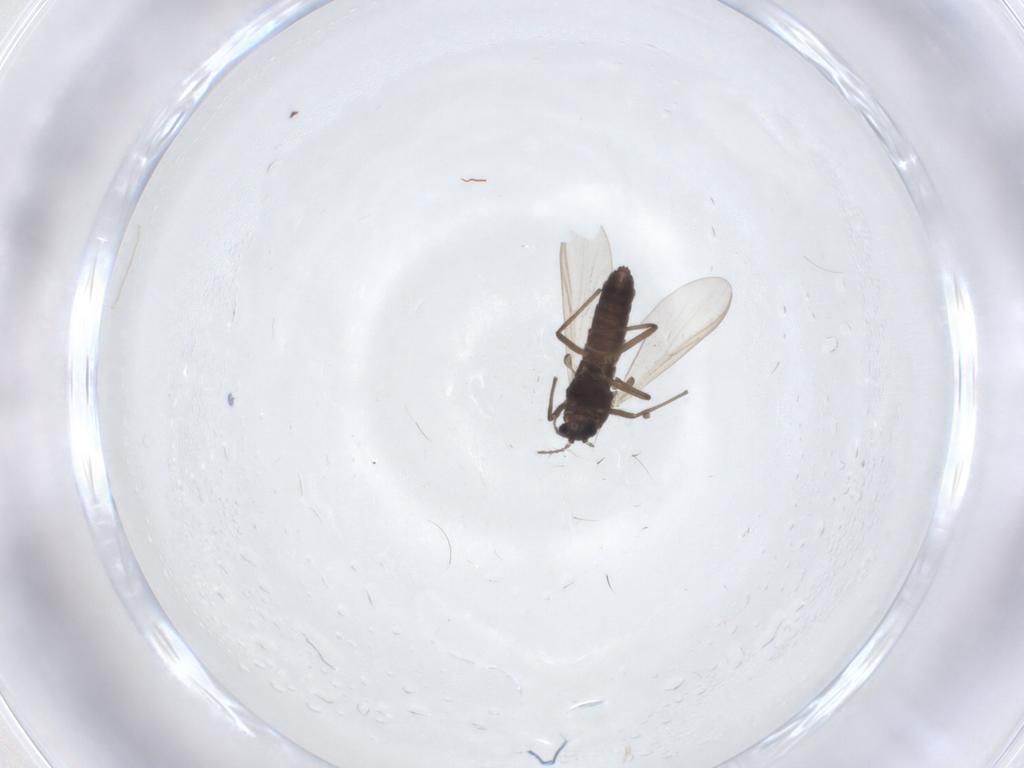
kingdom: Animalia
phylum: Arthropoda
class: Insecta
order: Diptera
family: Chironomidae
